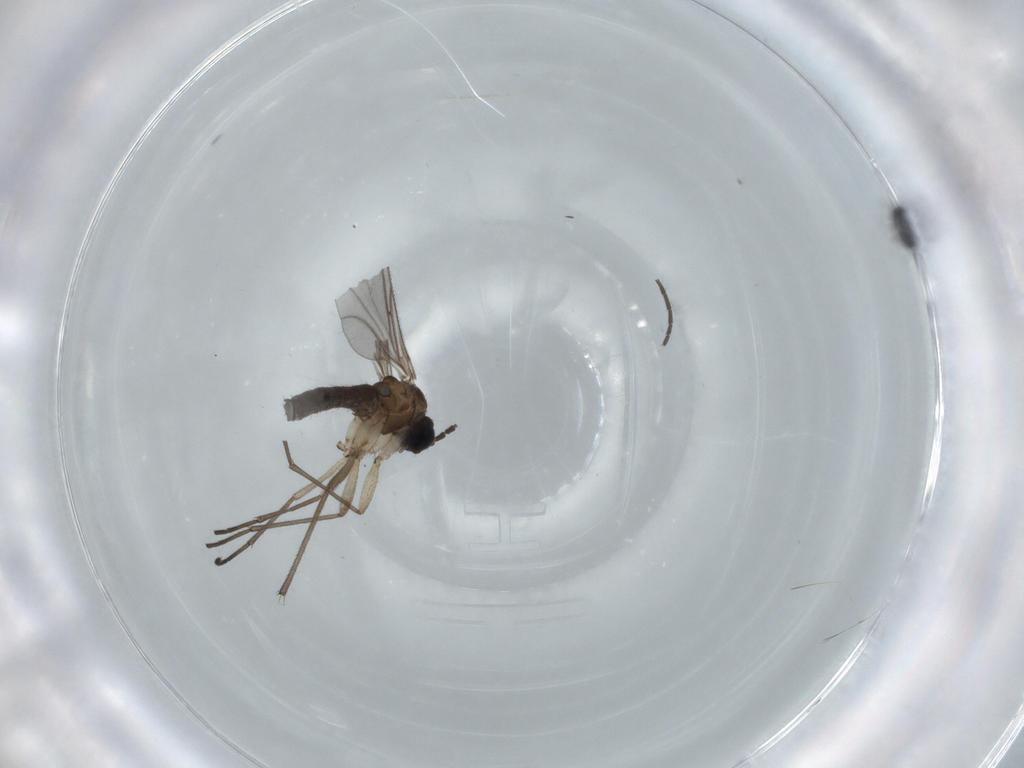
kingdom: Animalia
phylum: Arthropoda
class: Insecta
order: Diptera
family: Sciaridae
